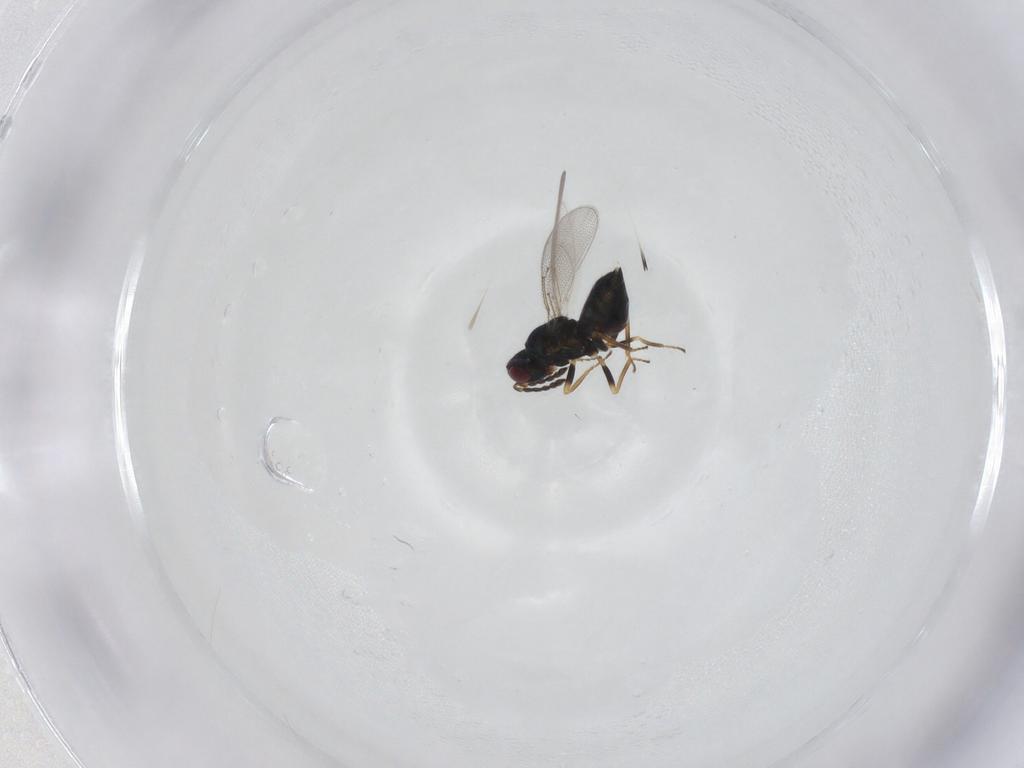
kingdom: Animalia
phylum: Arthropoda
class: Insecta
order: Hymenoptera
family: Eulophidae
